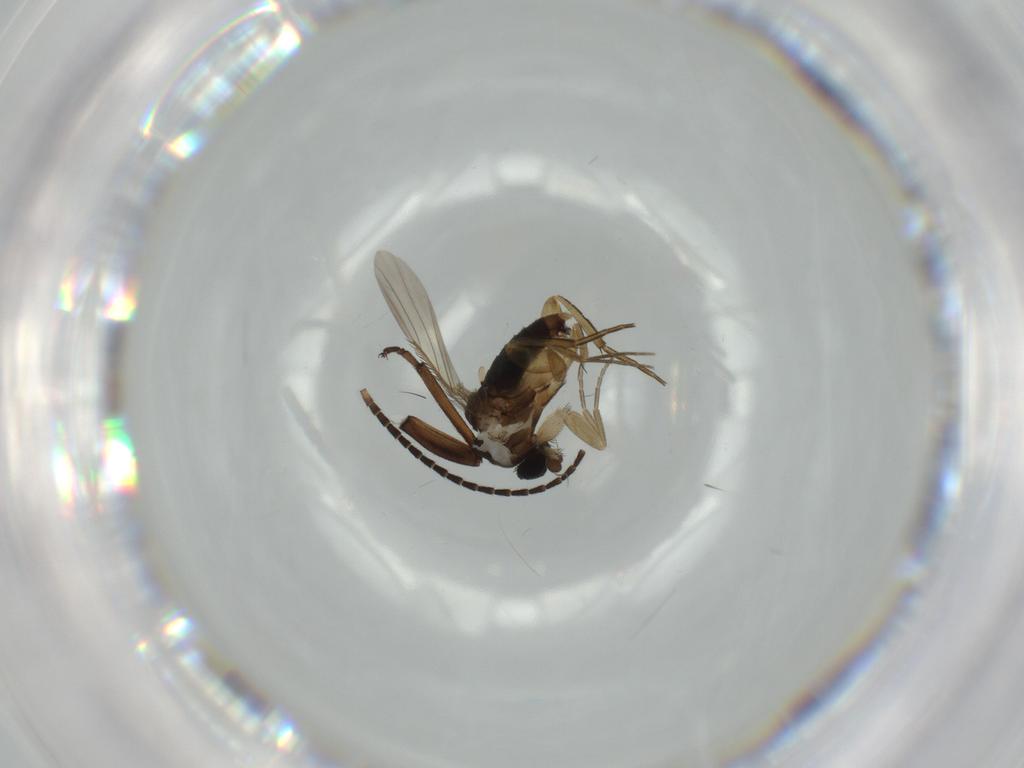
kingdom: Animalia
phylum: Arthropoda
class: Insecta
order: Diptera
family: Phoridae
